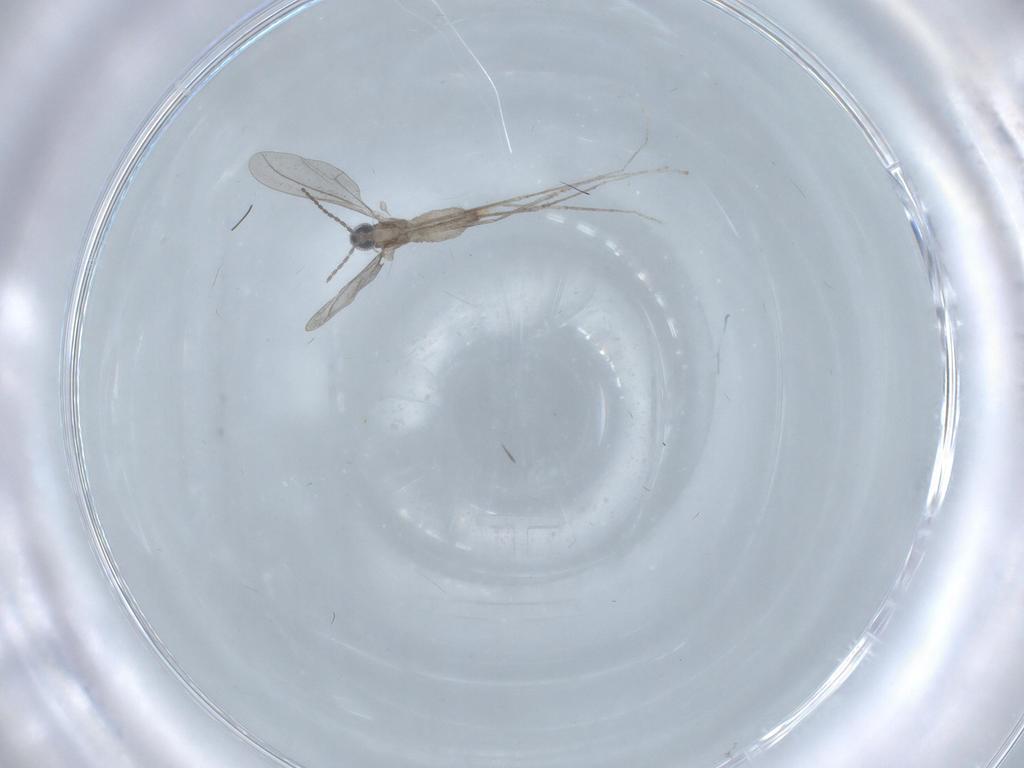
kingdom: Animalia
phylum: Arthropoda
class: Insecta
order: Diptera
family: Cecidomyiidae
